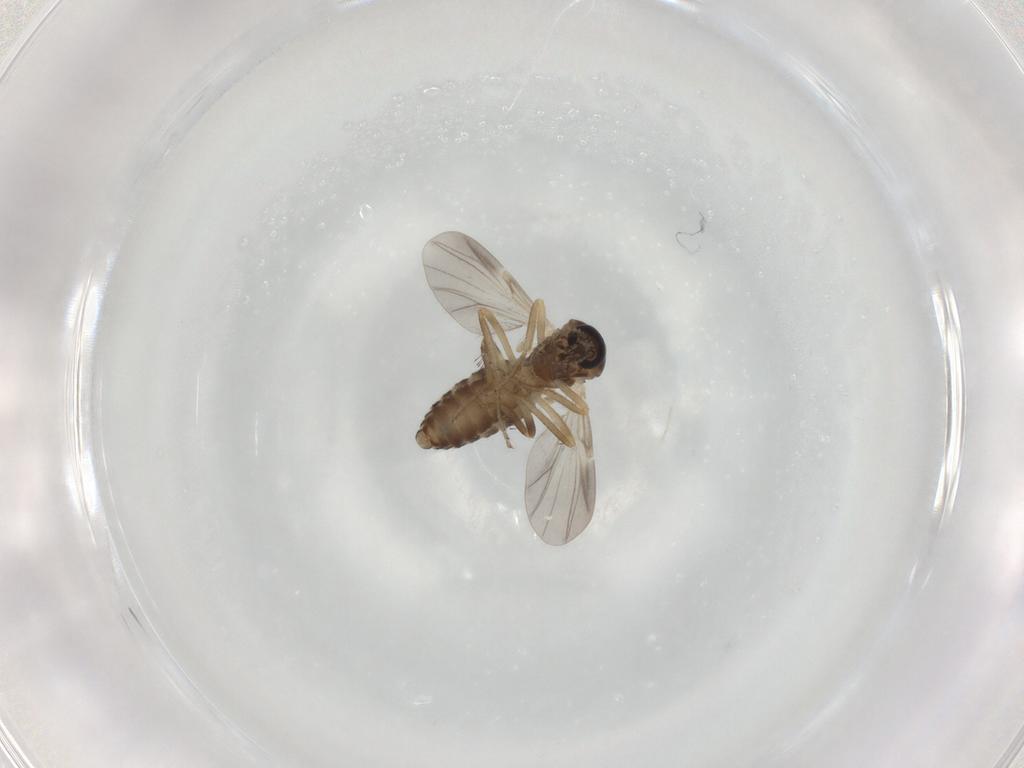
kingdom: Animalia
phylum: Arthropoda
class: Insecta
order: Diptera
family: Ceratopogonidae
